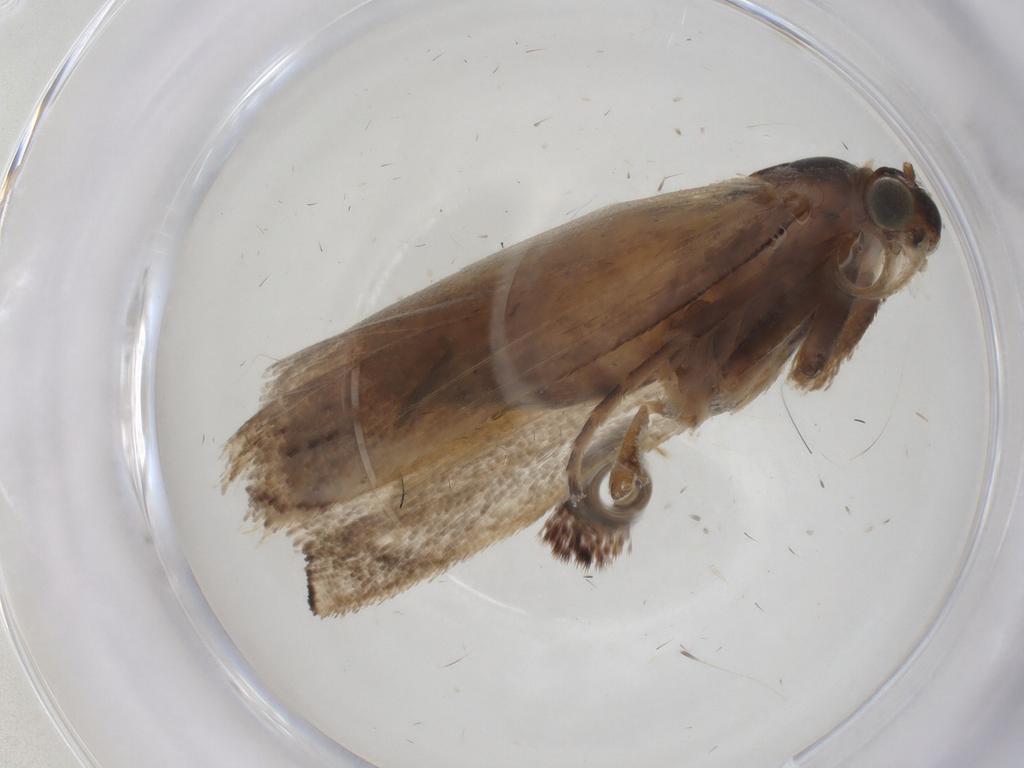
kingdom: Animalia
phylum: Arthropoda
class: Insecta
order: Lepidoptera
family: Crambidae
